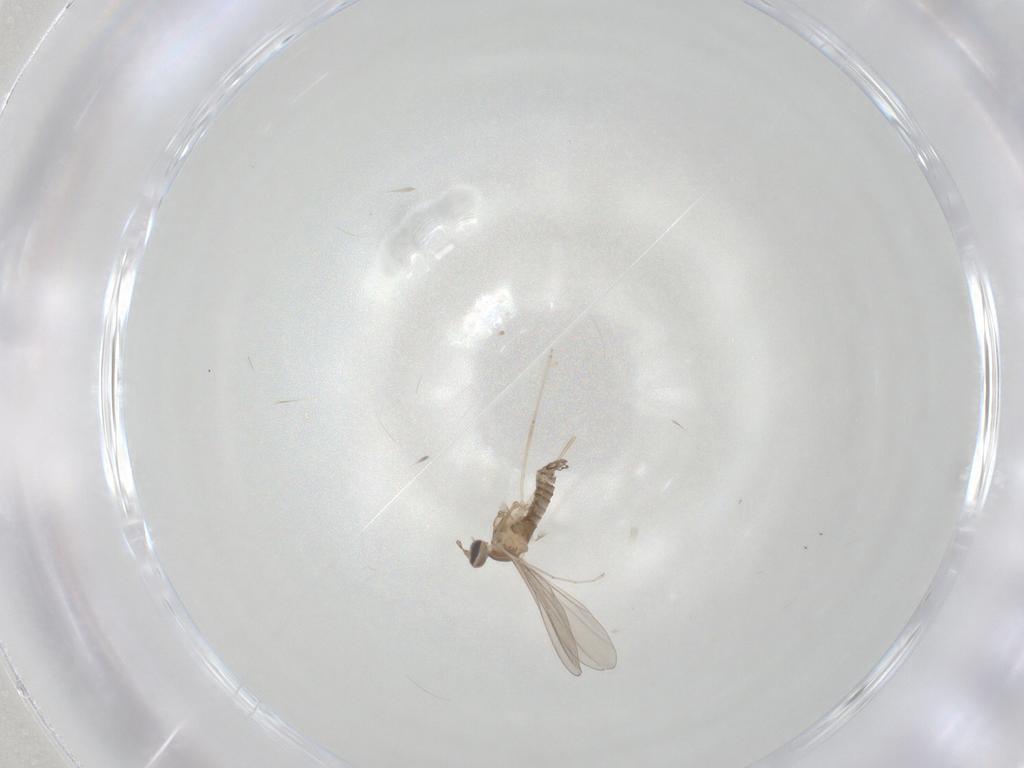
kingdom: Animalia
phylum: Arthropoda
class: Insecta
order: Diptera
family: Cecidomyiidae
